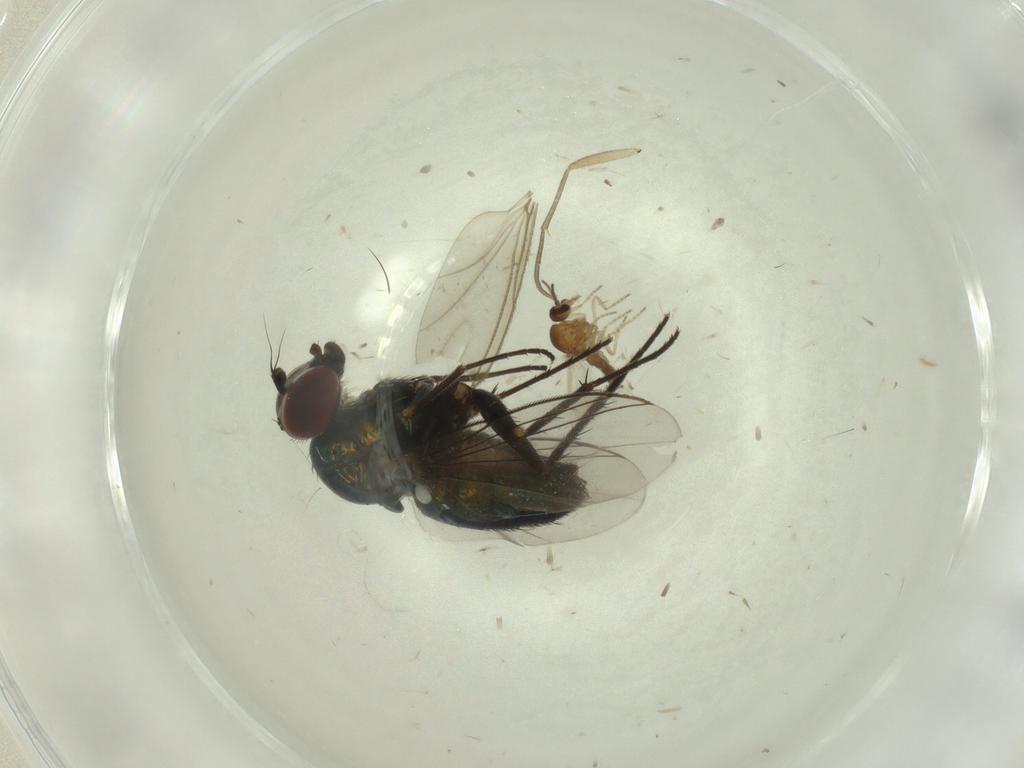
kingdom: Animalia
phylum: Arthropoda
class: Insecta
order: Diptera
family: Dolichopodidae
